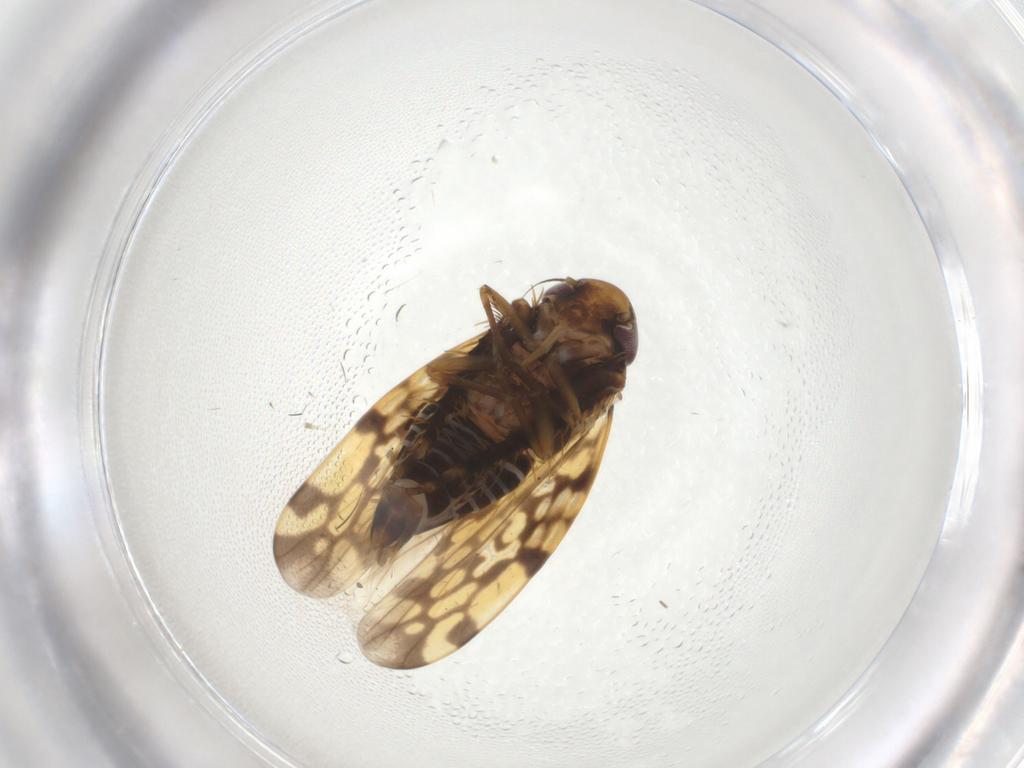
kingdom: Animalia
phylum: Arthropoda
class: Insecta
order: Hemiptera
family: Cicadellidae
